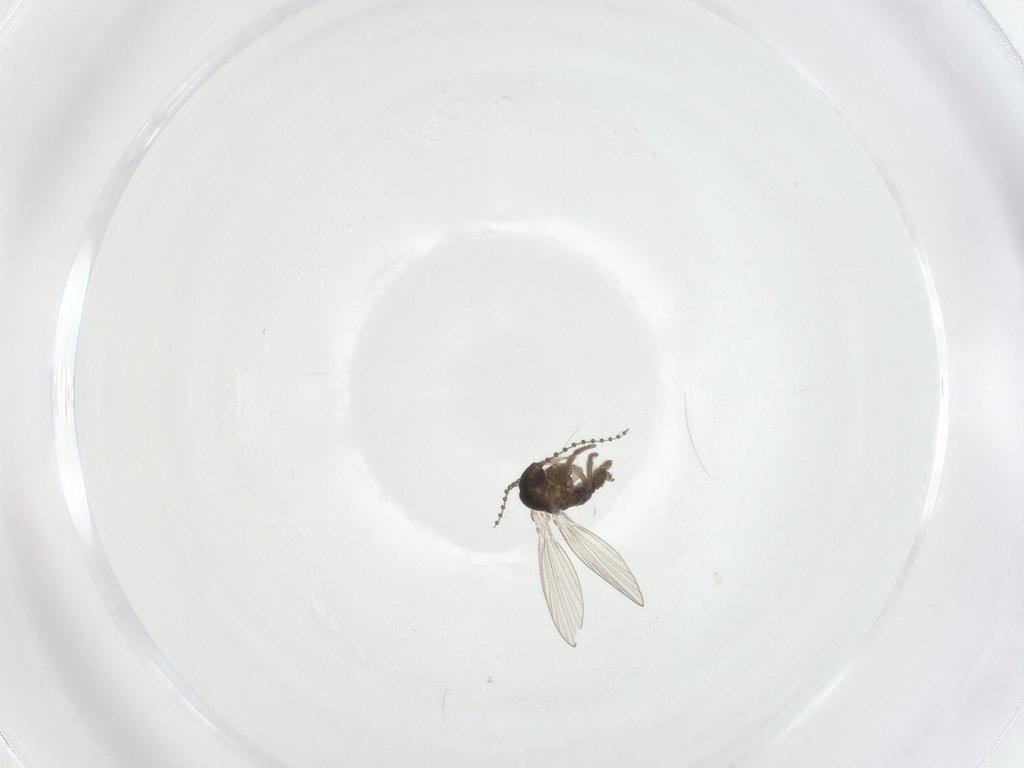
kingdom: Animalia
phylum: Arthropoda
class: Insecta
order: Diptera
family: Psychodidae
